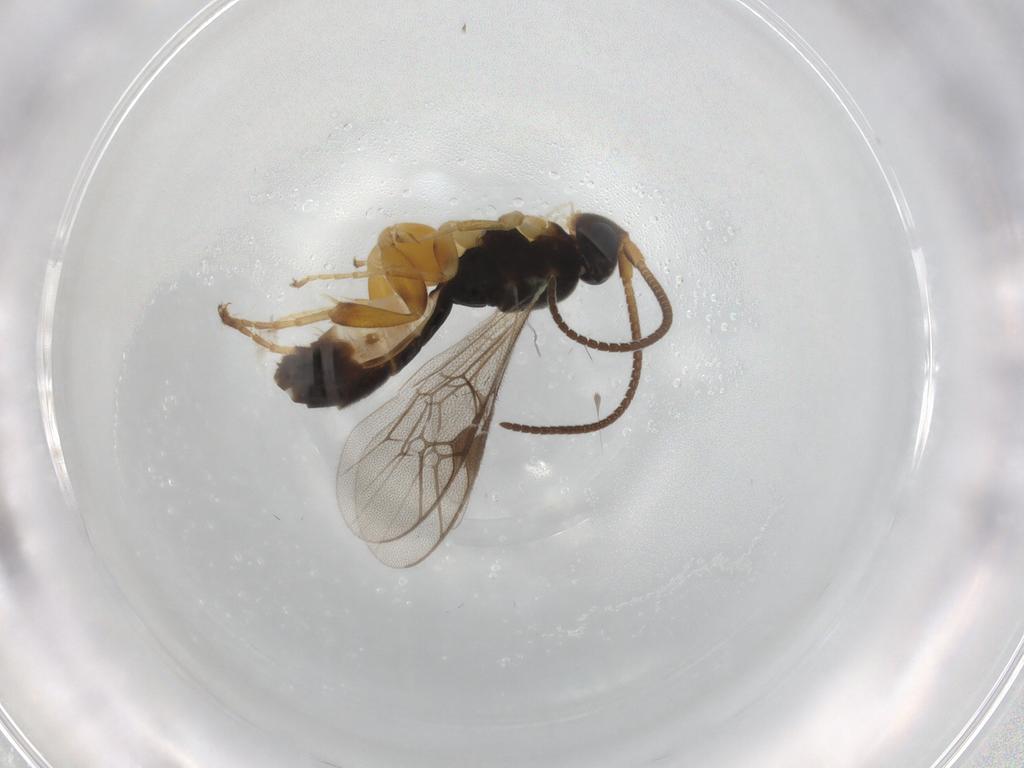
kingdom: Animalia
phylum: Arthropoda
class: Insecta
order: Hymenoptera
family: Ichneumonidae
